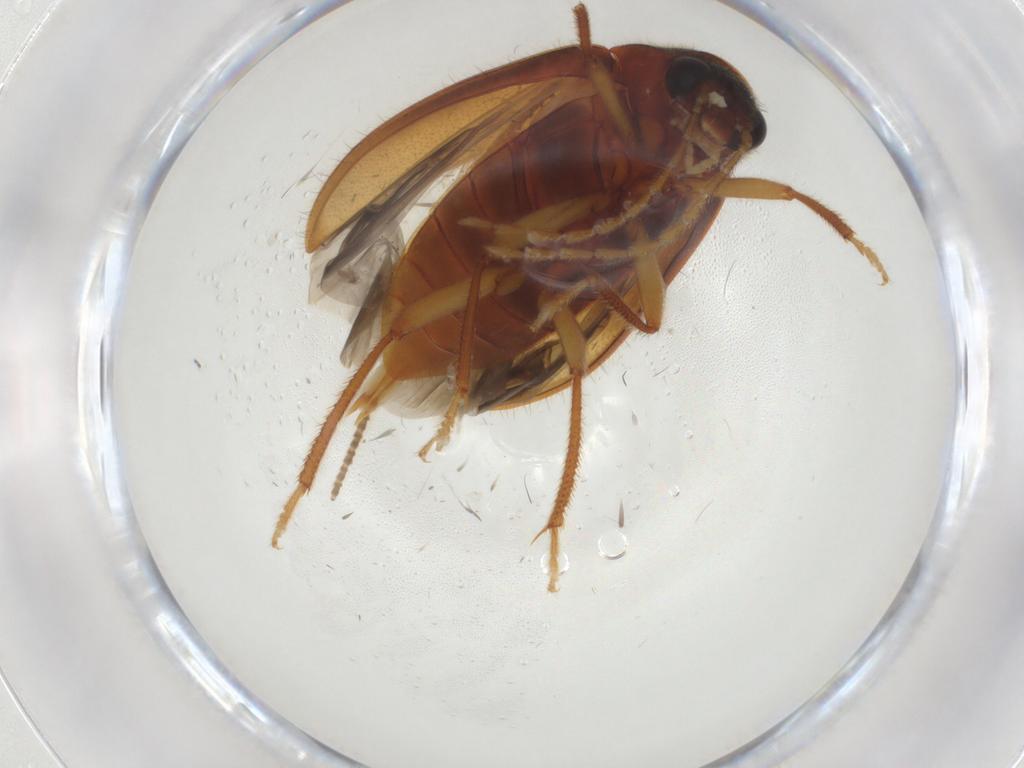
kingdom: Animalia
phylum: Arthropoda
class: Insecta
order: Coleoptera
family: Ptilodactylidae
